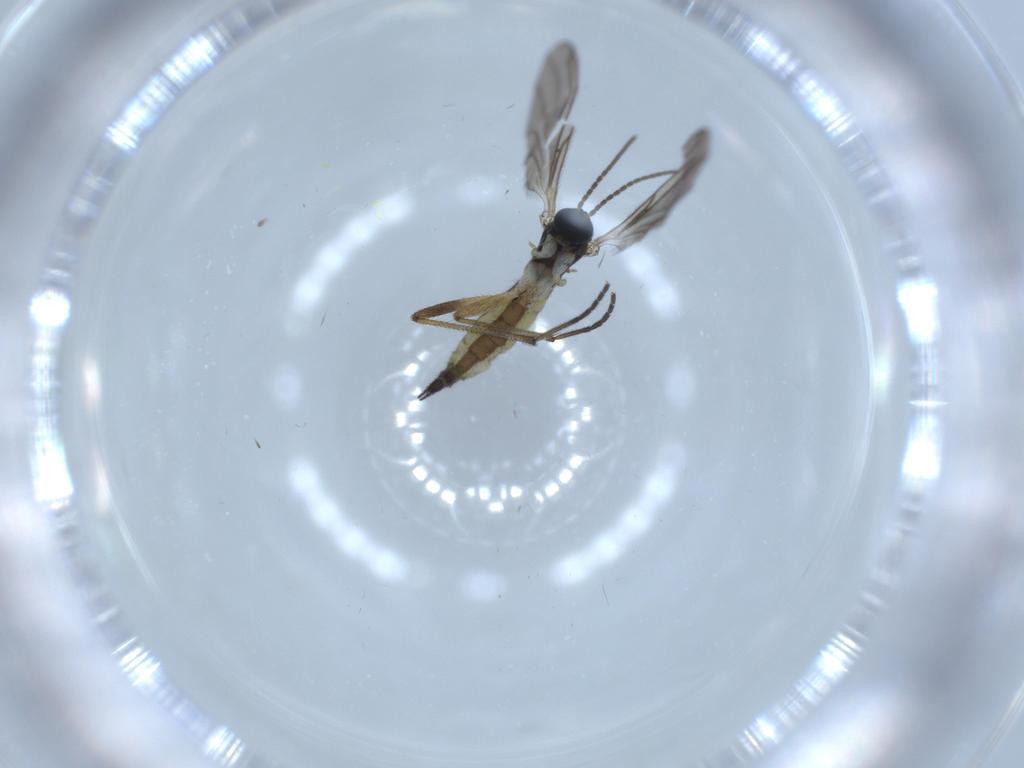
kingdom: Animalia
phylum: Arthropoda
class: Insecta
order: Diptera
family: Sciaridae
